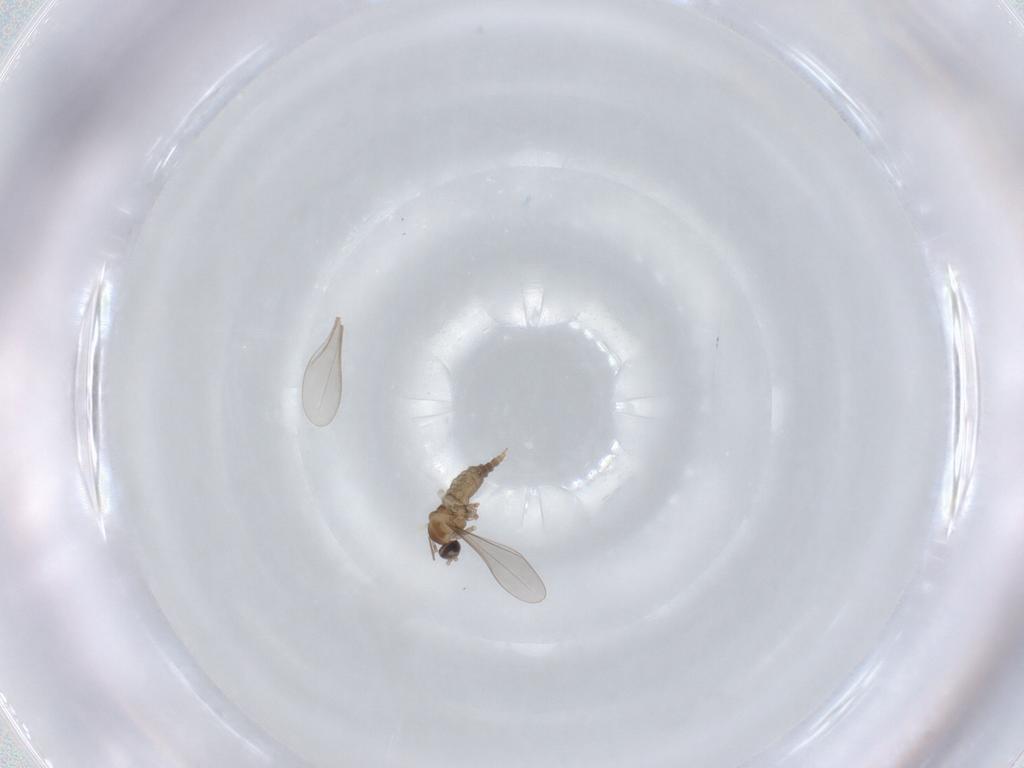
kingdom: Animalia
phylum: Arthropoda
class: Insecta
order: Diptera
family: Cecidomyiidae
